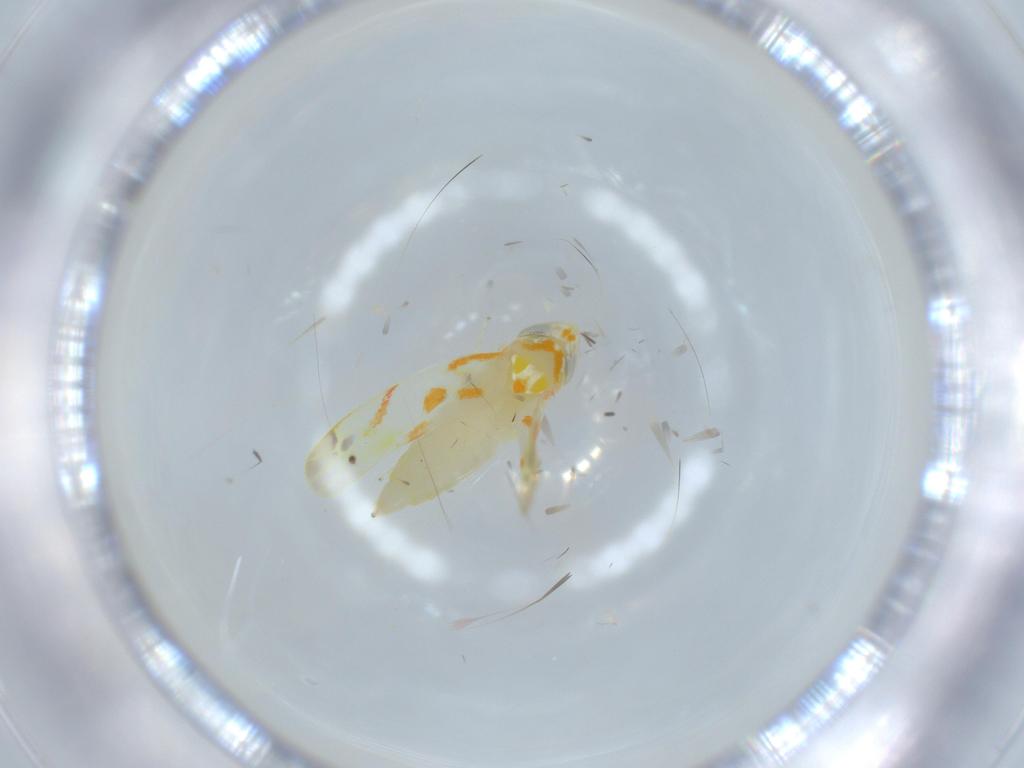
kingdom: Animalia
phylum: Arthropoda
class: Insecta
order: Hemiptera
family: Cicadellidae
